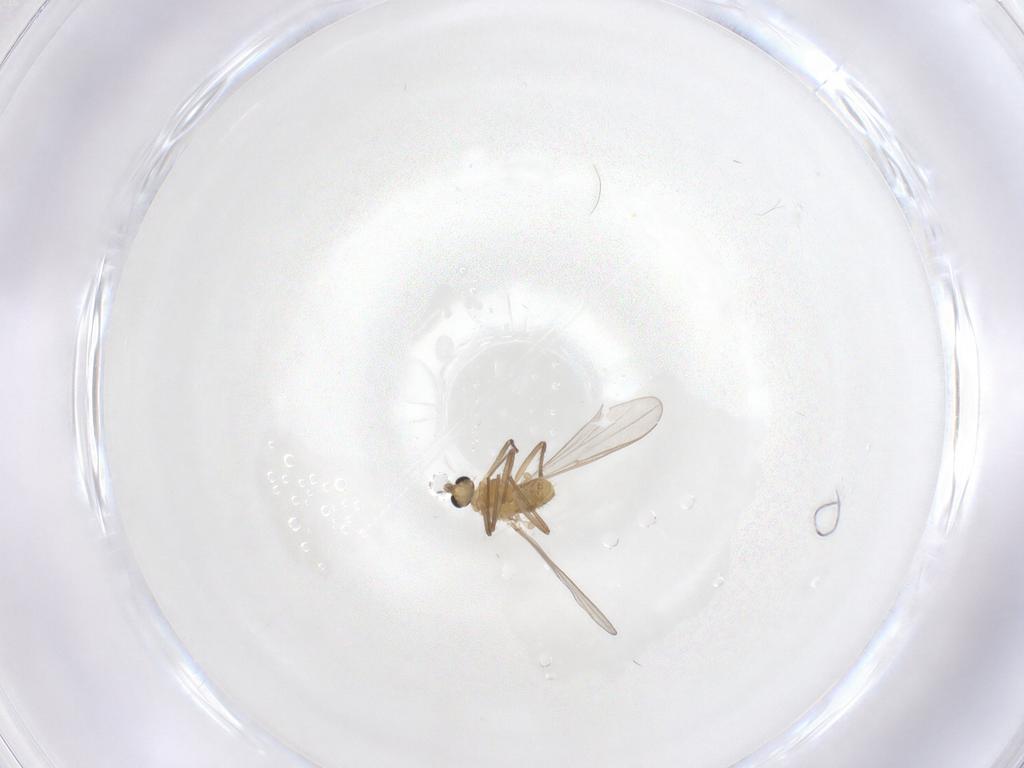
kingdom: Animalia
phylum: Arthropoda
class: Insecta
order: Diptera
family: Chironomidae
